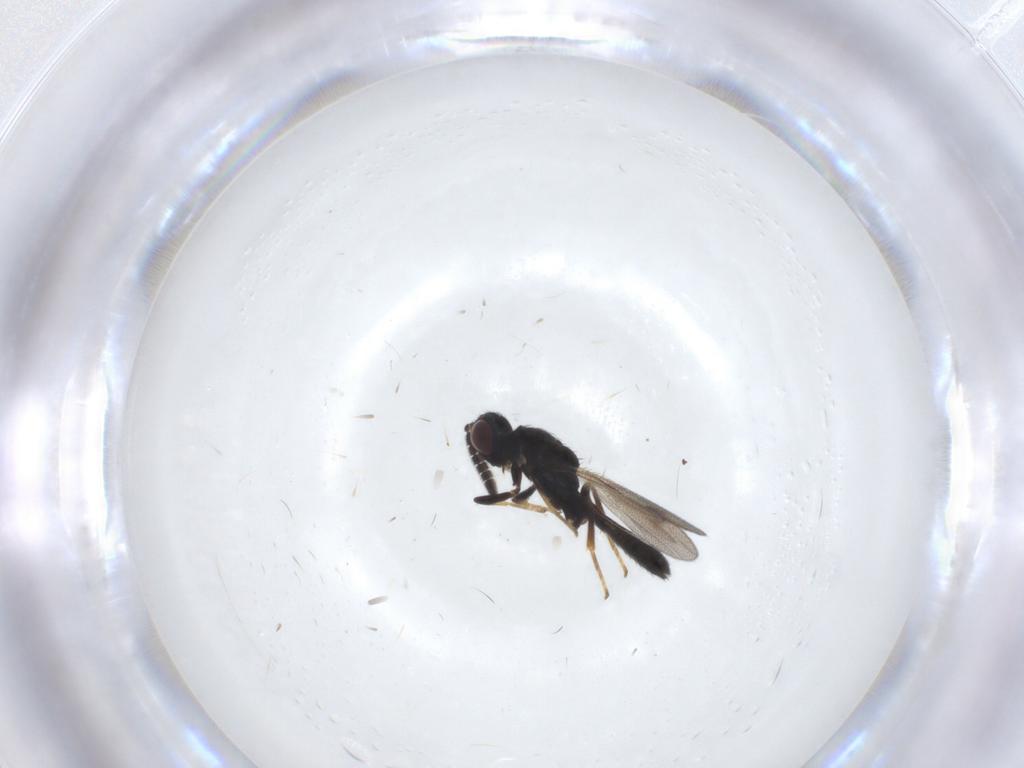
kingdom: Animalia
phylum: Arthropoda
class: Insecta
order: Hymenoptera
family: Pteromalidae
